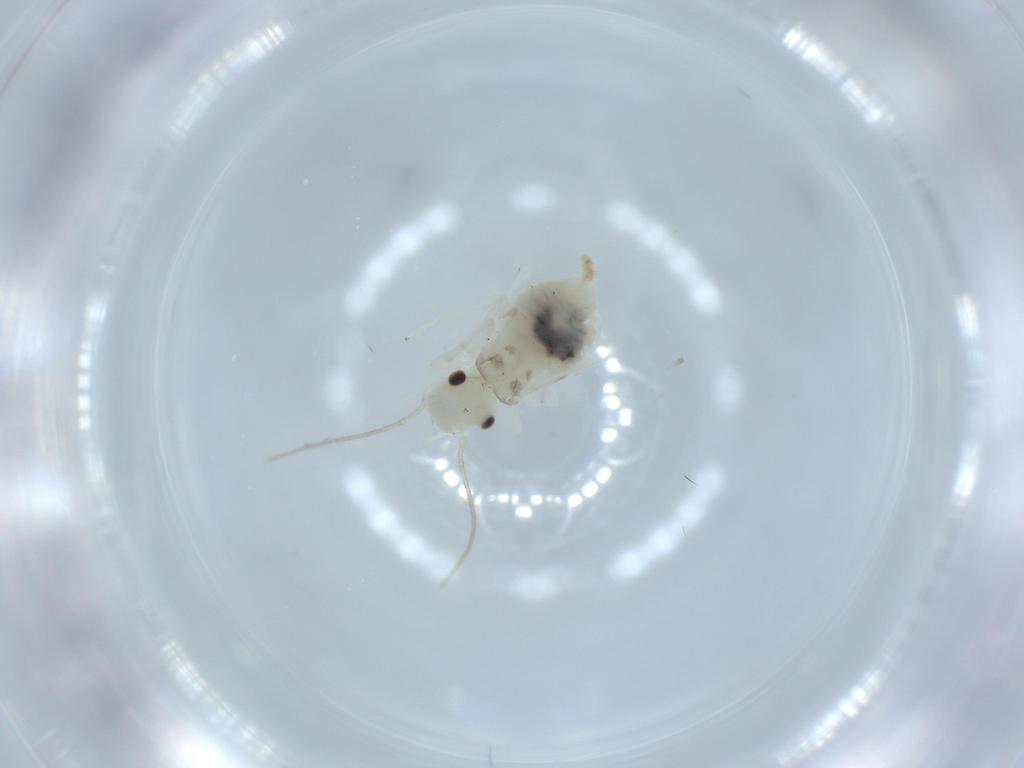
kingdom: Animalia
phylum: Arthropoda
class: Insecta
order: Psocodea
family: Caeciliusidae
